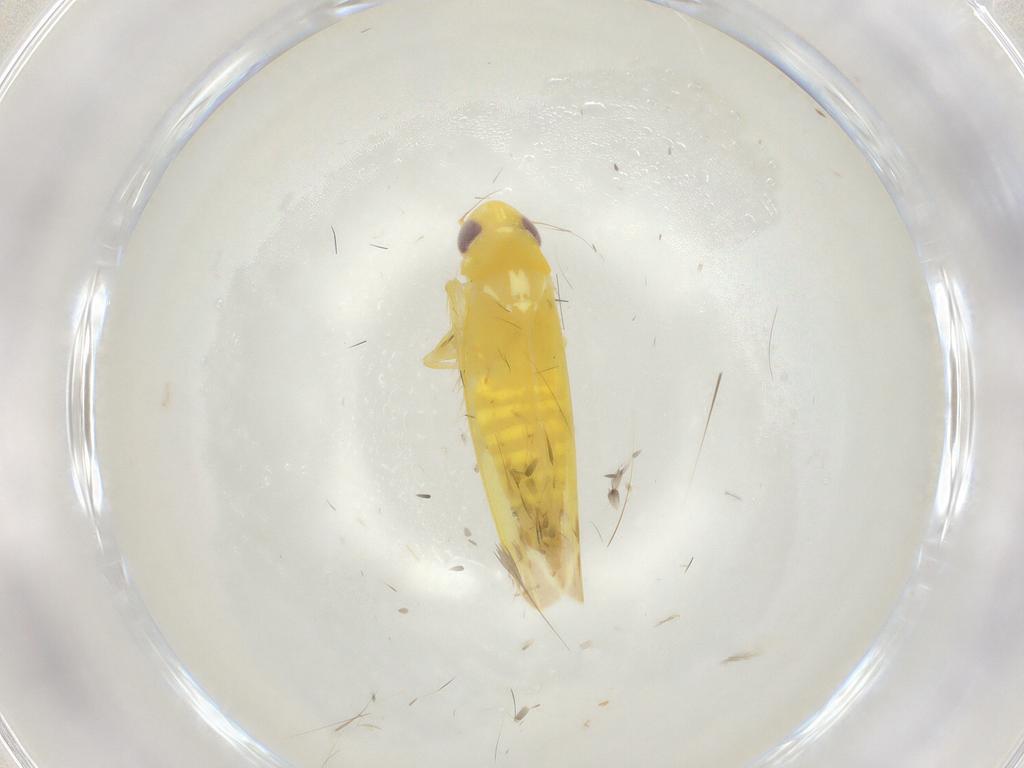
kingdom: Animalia
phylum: Arthropoda
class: Insecta
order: Hemiptera
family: Cicadellidae
